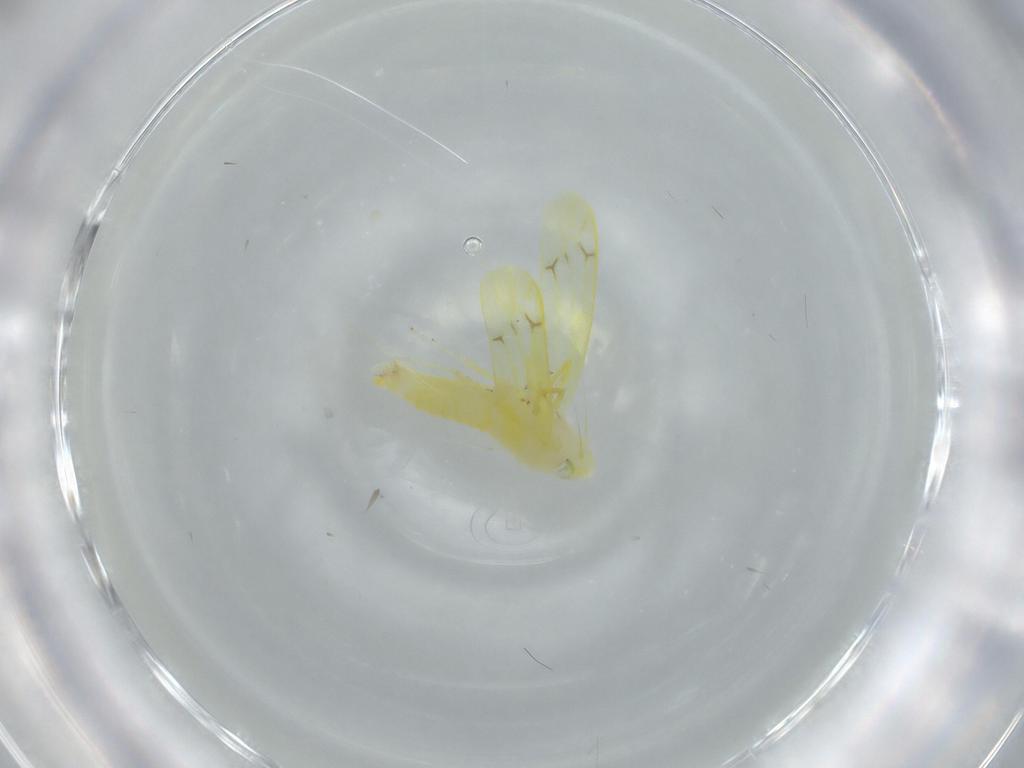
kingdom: Animalia
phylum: Arthropoda
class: Insecta
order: Hemiptera
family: Cicadellidae
